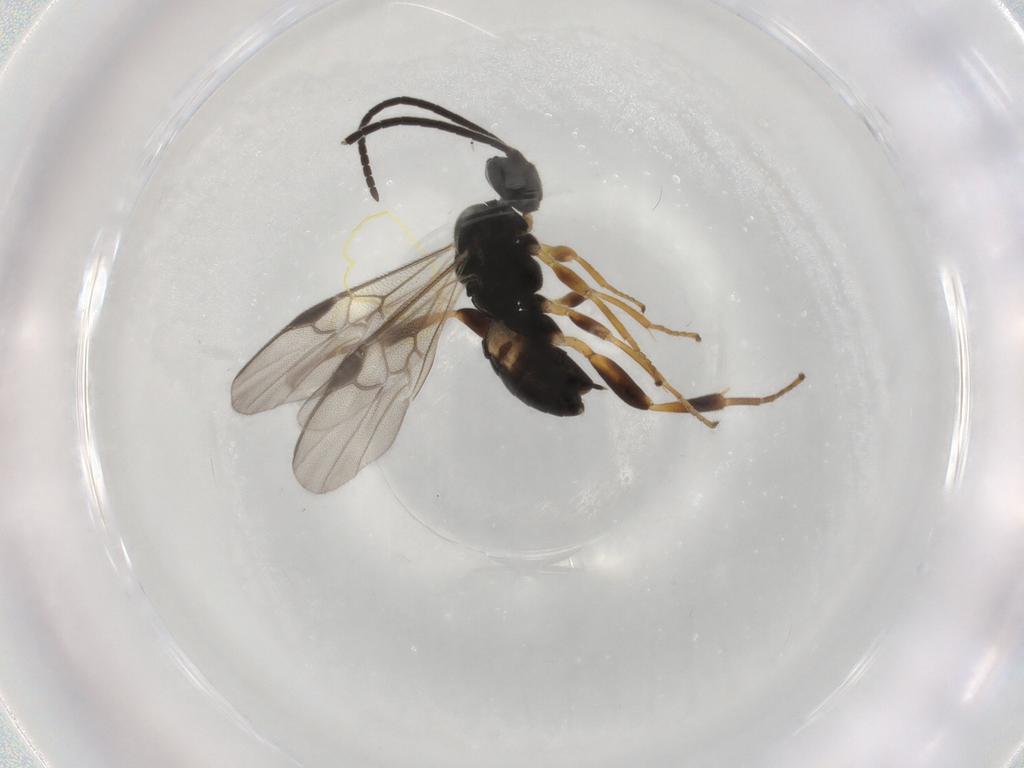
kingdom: Animalia
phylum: Arthropoda
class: Insecta
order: Hymenoptera
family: Braconidae
